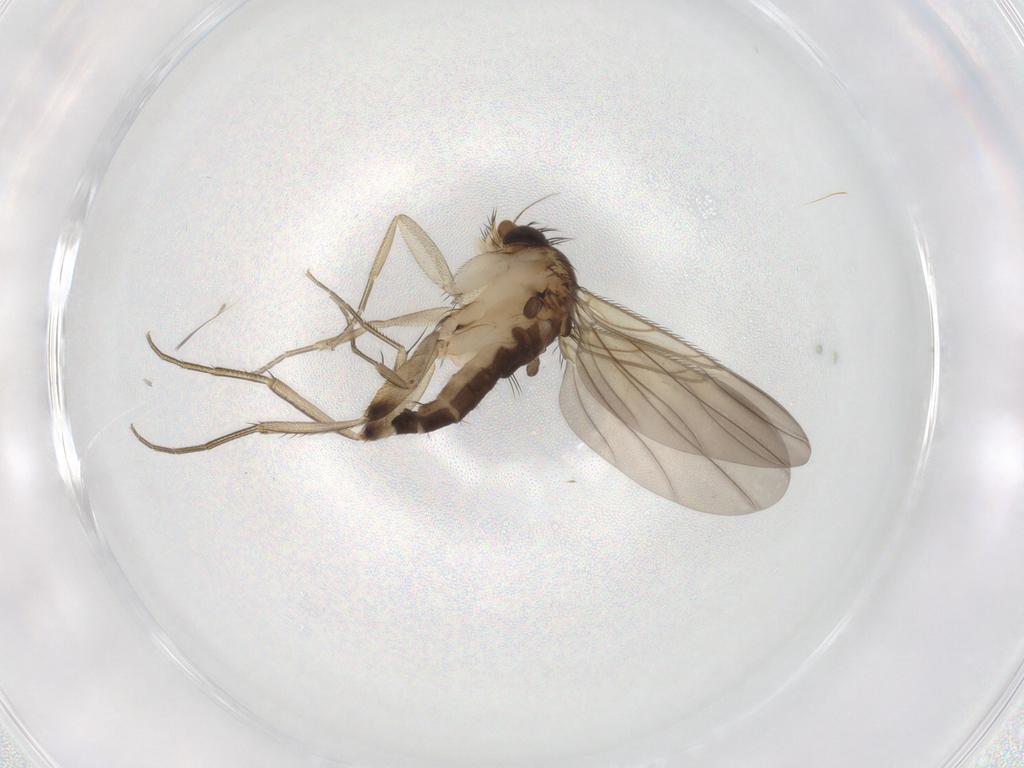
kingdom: Animalia
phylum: Arthropoda
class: Insecta
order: Diptera
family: Phoridae
